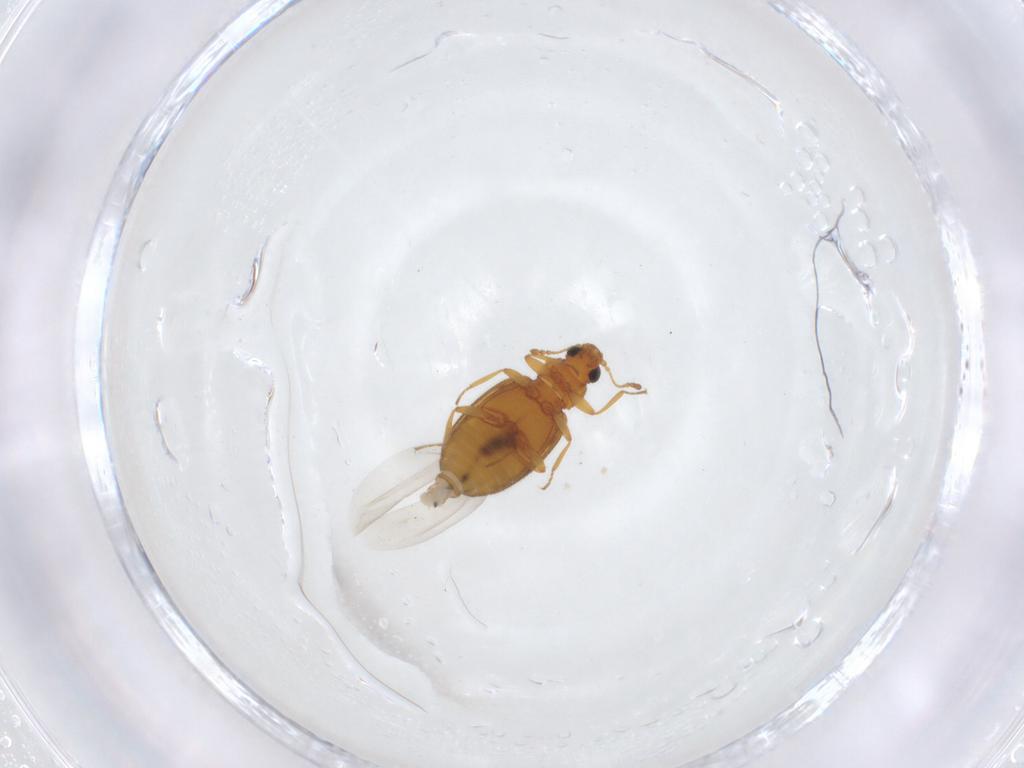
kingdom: Animalia
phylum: Arthropoda
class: Insecta
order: Coleoptera
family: Latridiidae
